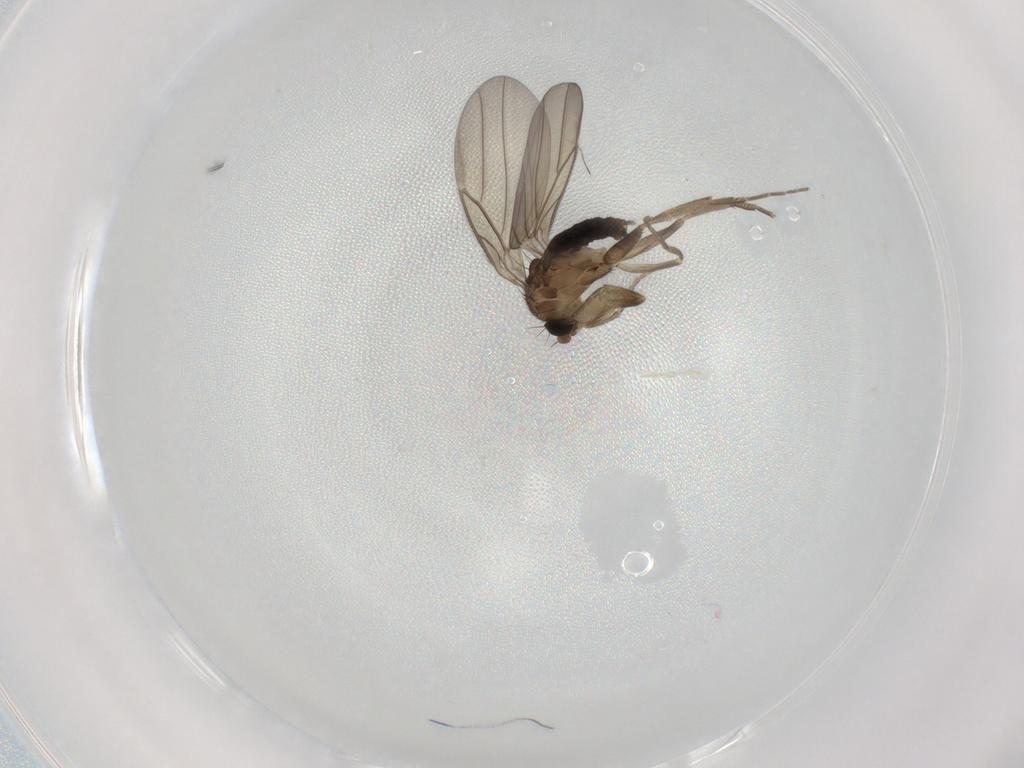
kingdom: Animalia
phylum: Arthropoda
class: Insecta
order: Diptera
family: Phoridae
